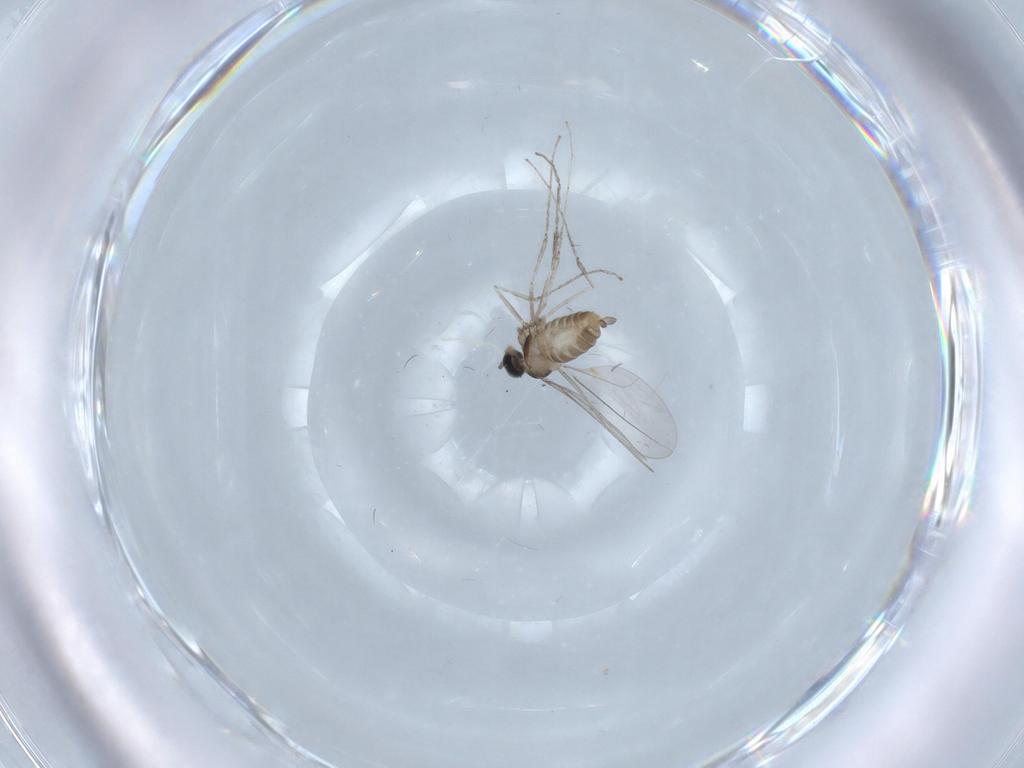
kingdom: Animalia
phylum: Arthropoda
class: Insecta
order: Diptera
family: Cecidomyiidae
